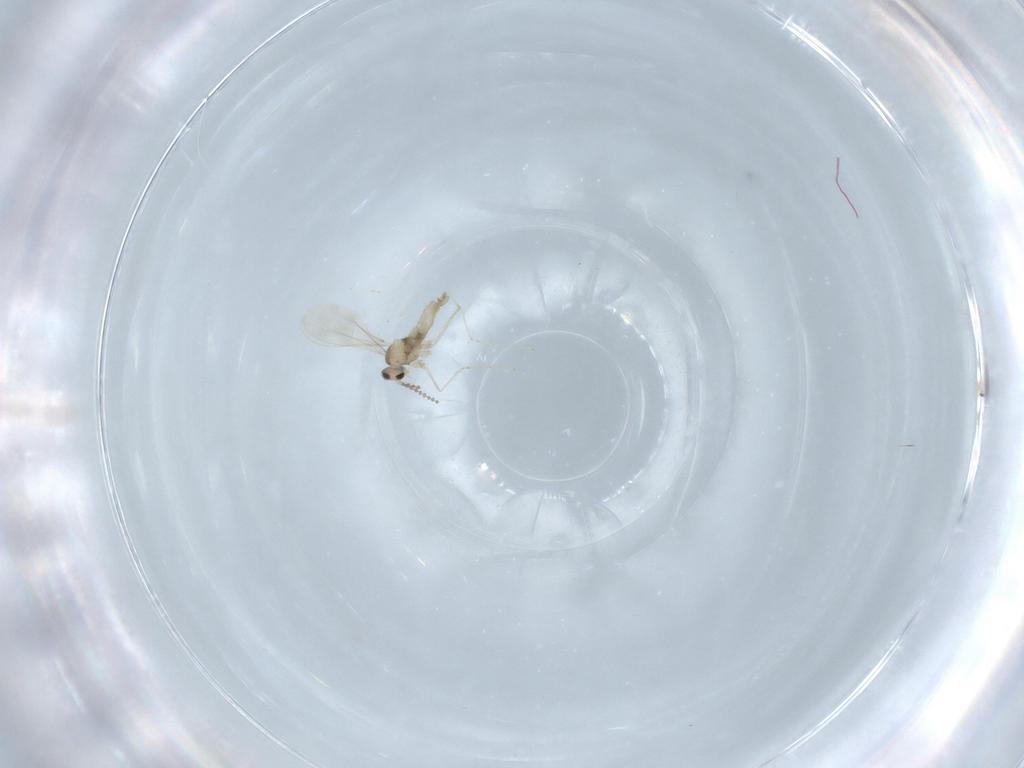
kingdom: Animalia
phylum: Arthropoda
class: Insecta
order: Diptera
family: Cecidomyiidae
